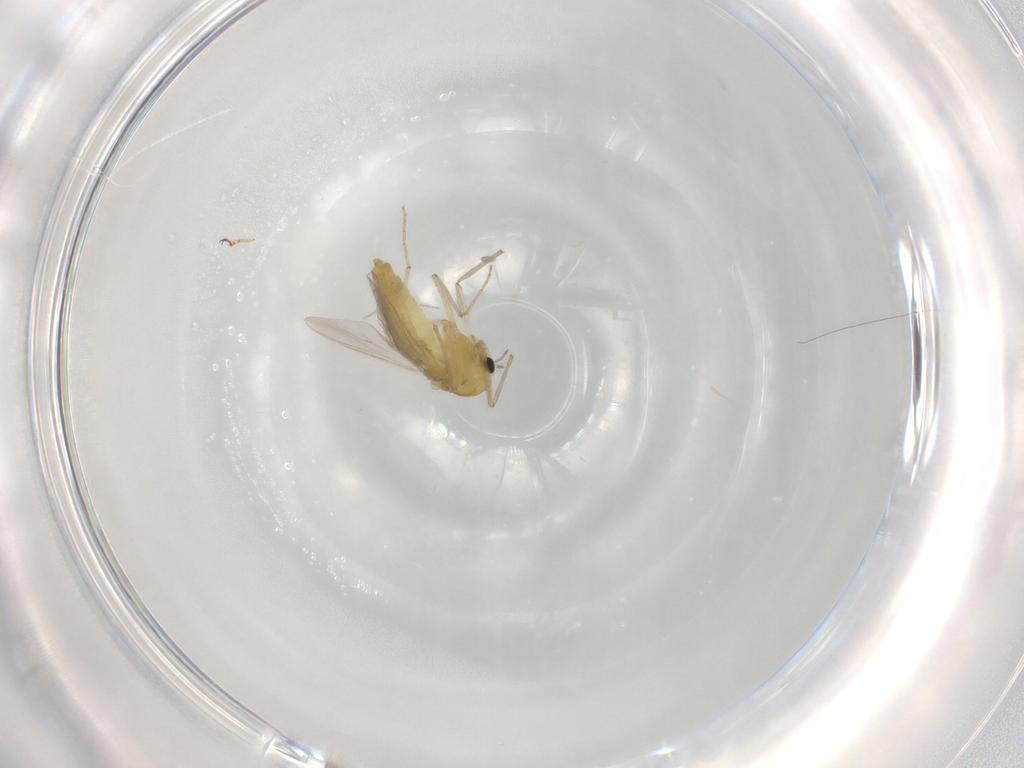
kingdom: Animalia
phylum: Arthropoda
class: Insecta
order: Diptera
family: Chironomidae
